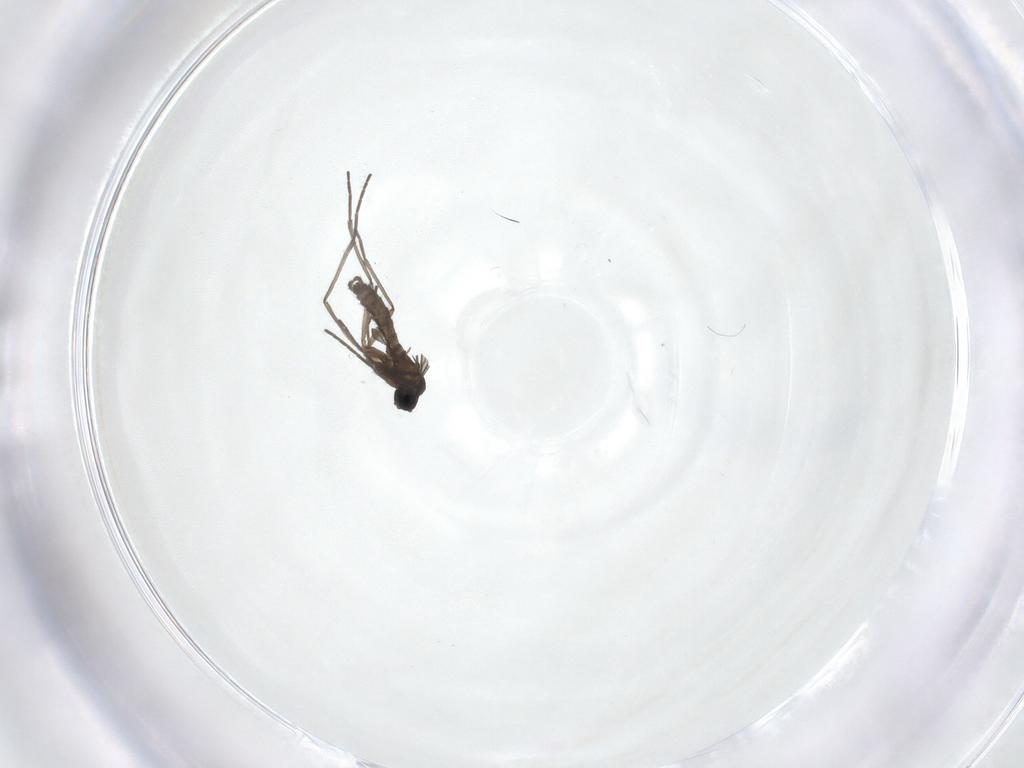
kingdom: Animalia
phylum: Arthropoda
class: Insecta
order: Diptera
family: Sciaridae
